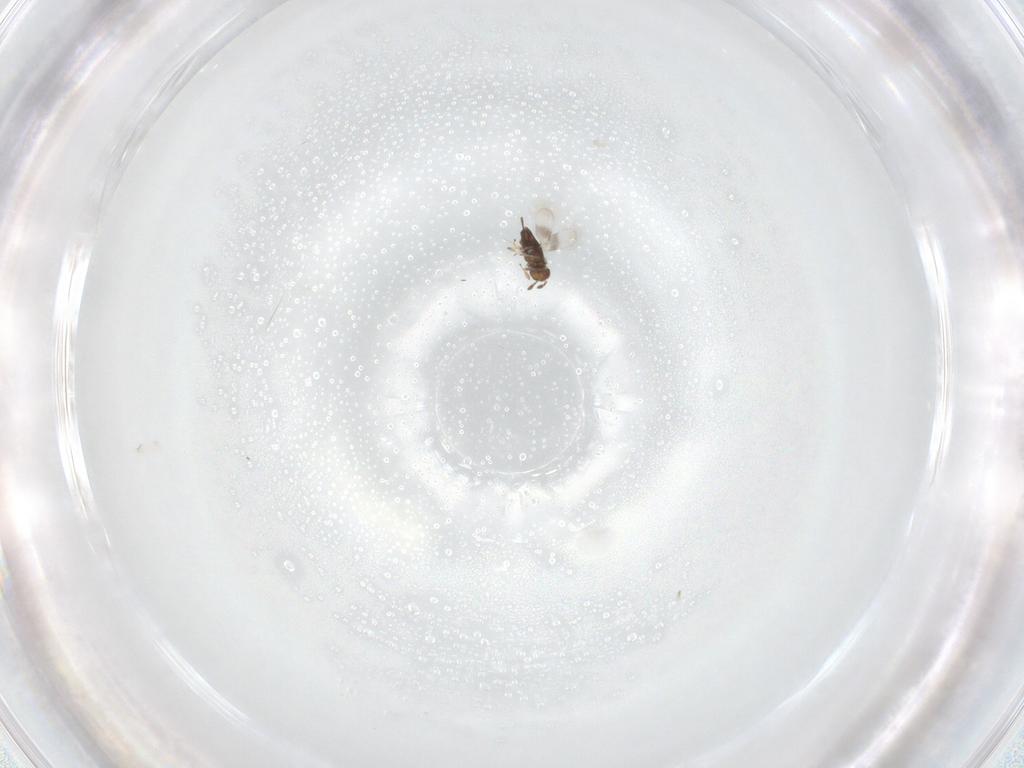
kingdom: Animalia
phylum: Arthropoda
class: Insecta
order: Hymenoptera
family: Azotidae
